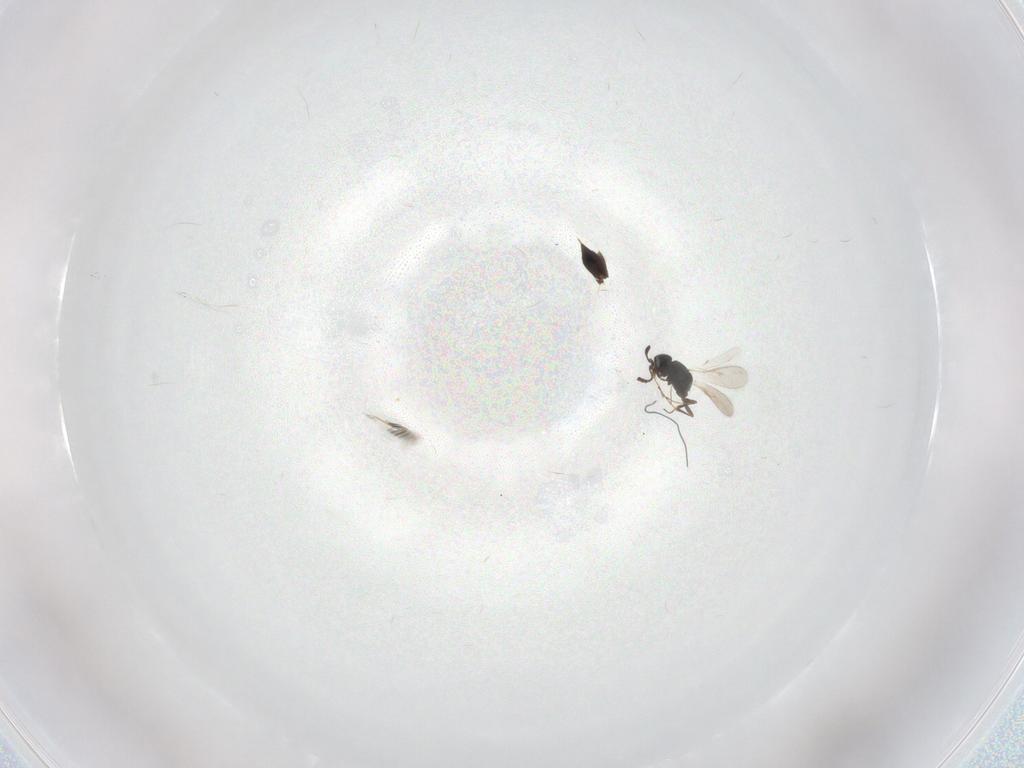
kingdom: Animalia
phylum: Arthropoda
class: Insecta
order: Hymenoptera
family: Scelionidae
